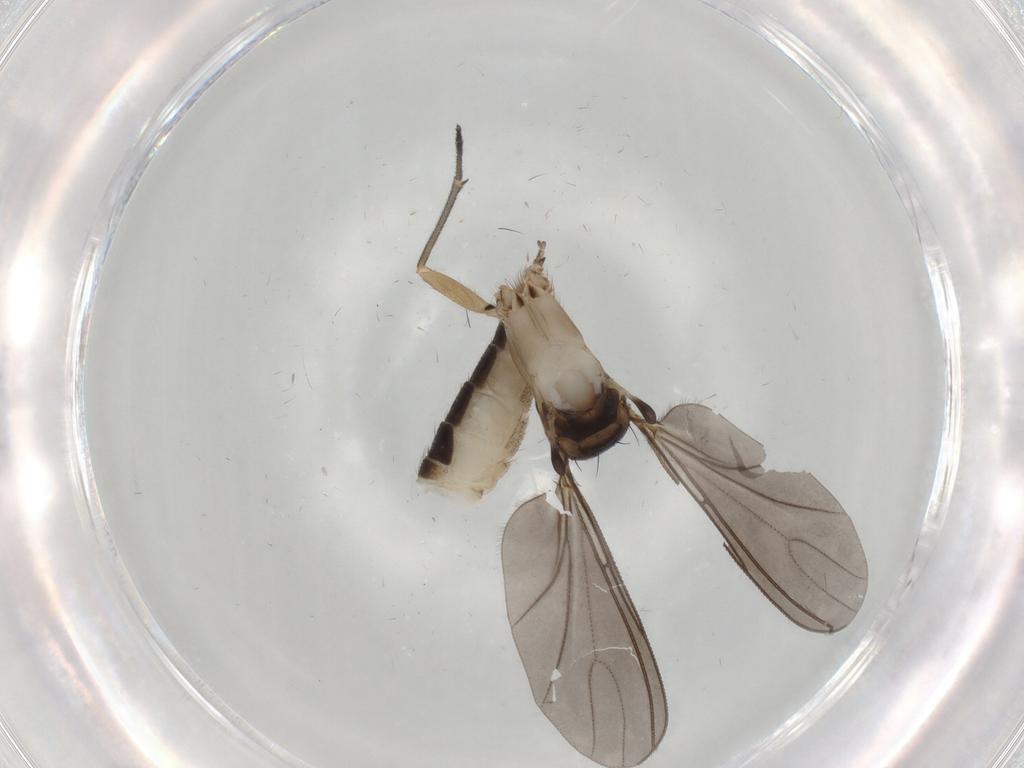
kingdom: Animalia
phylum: Arthropoda
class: Insecta
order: Diptera
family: Sciaridae
